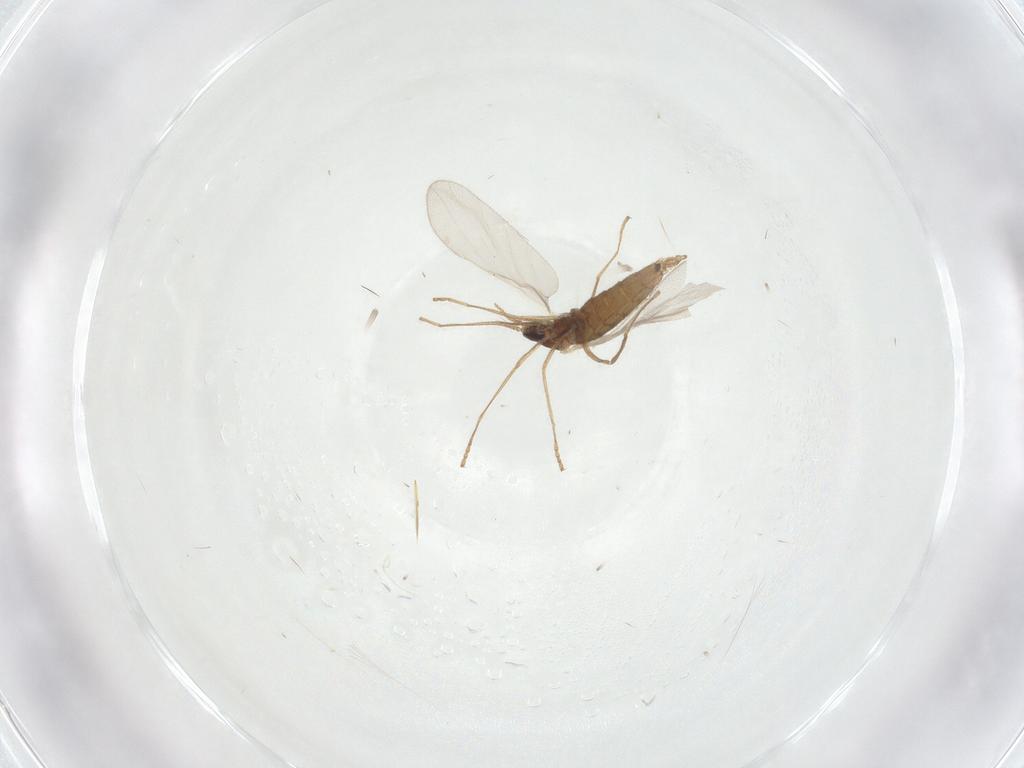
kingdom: Animalia
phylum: Arthropoda
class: Insecta
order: Diptera
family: Cecidomyiidae
